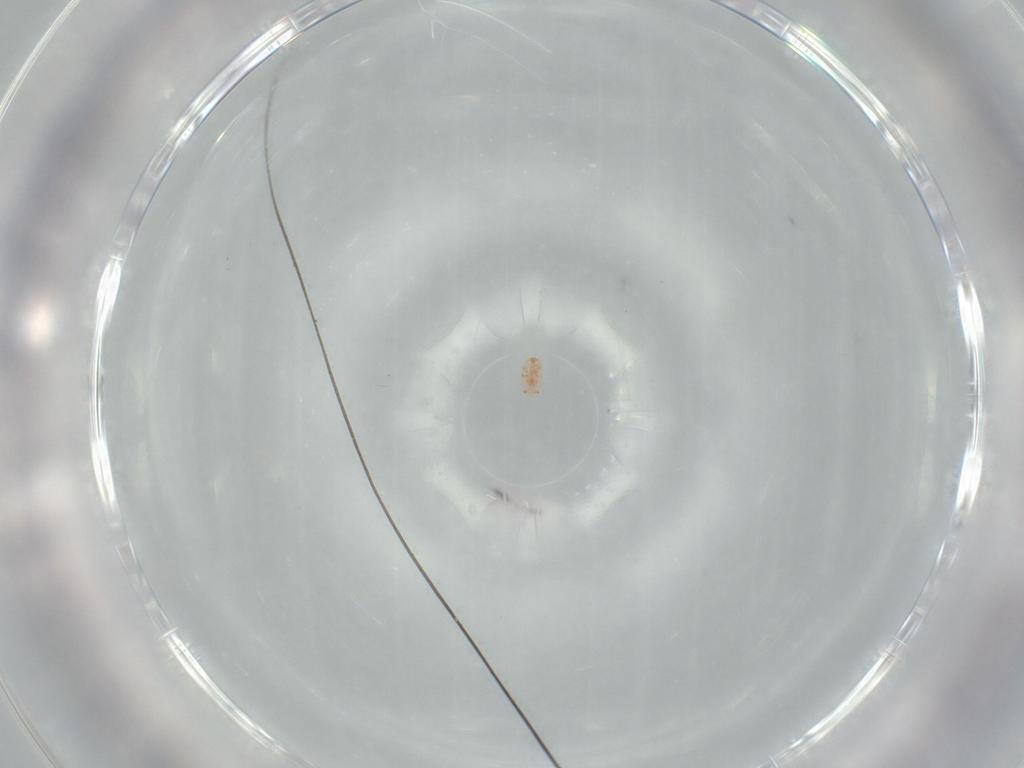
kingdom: Animalia
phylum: Arthropoda
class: Insecta
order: Hemiptera
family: Coccidae
